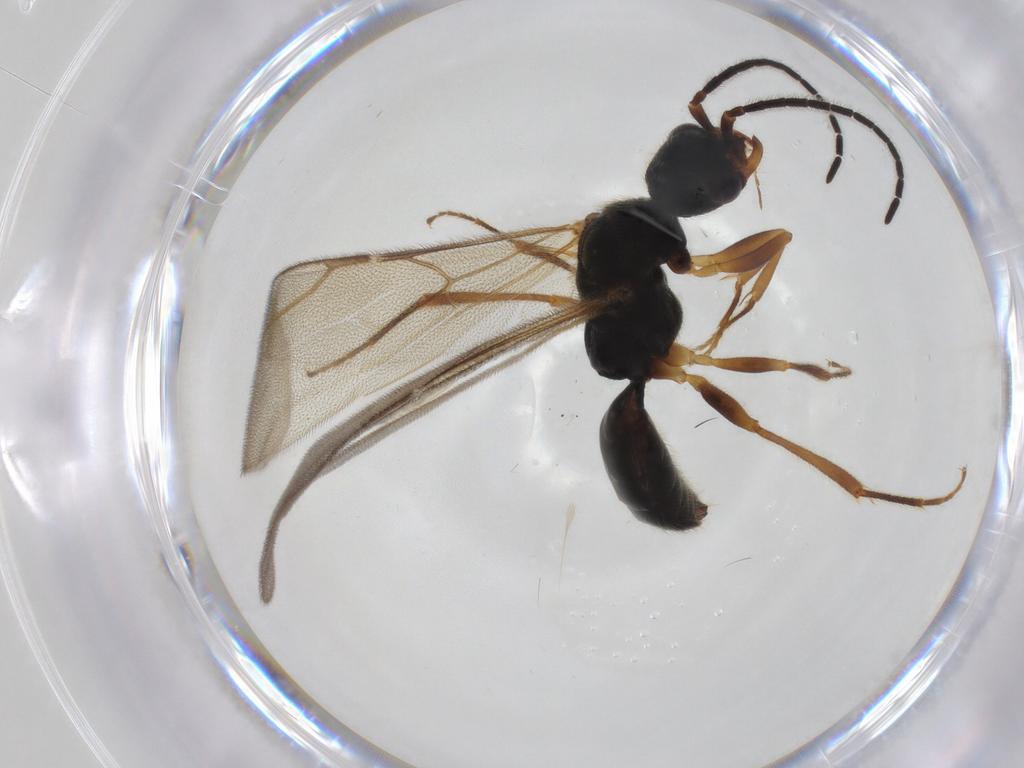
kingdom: Animalia
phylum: Arthropoda
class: Insecta
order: Hymenoptera
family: Bethylidae
